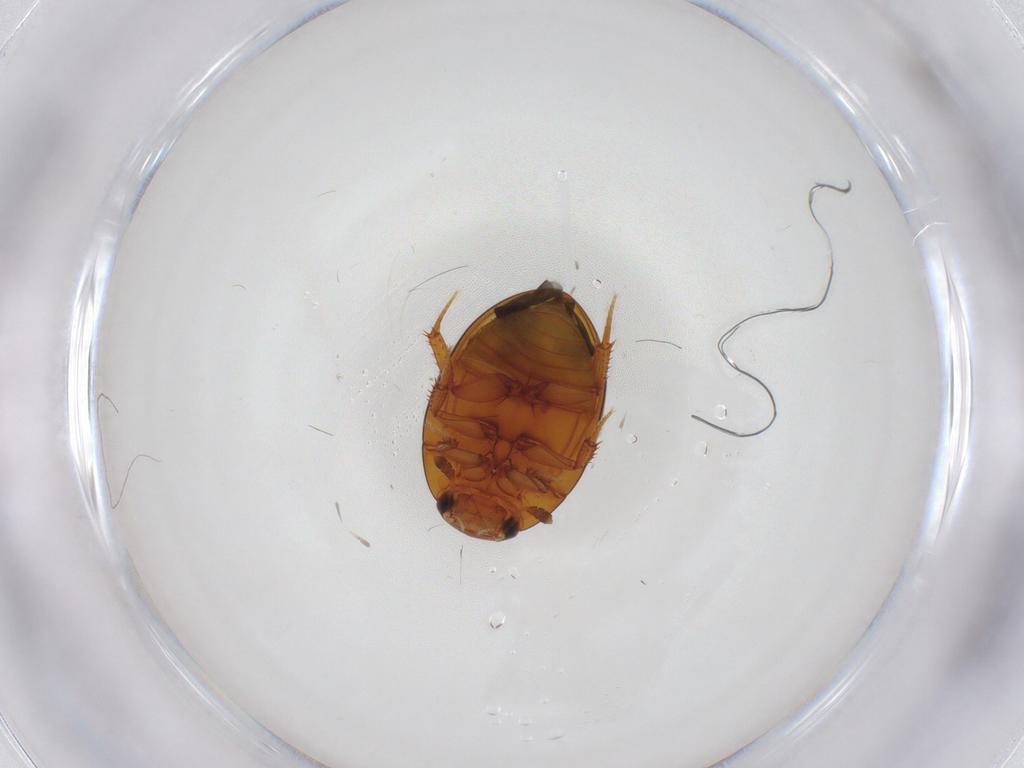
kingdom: Animalia
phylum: Arthropoda
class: Insecta
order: Coleoptera
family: Hydrophilidae
